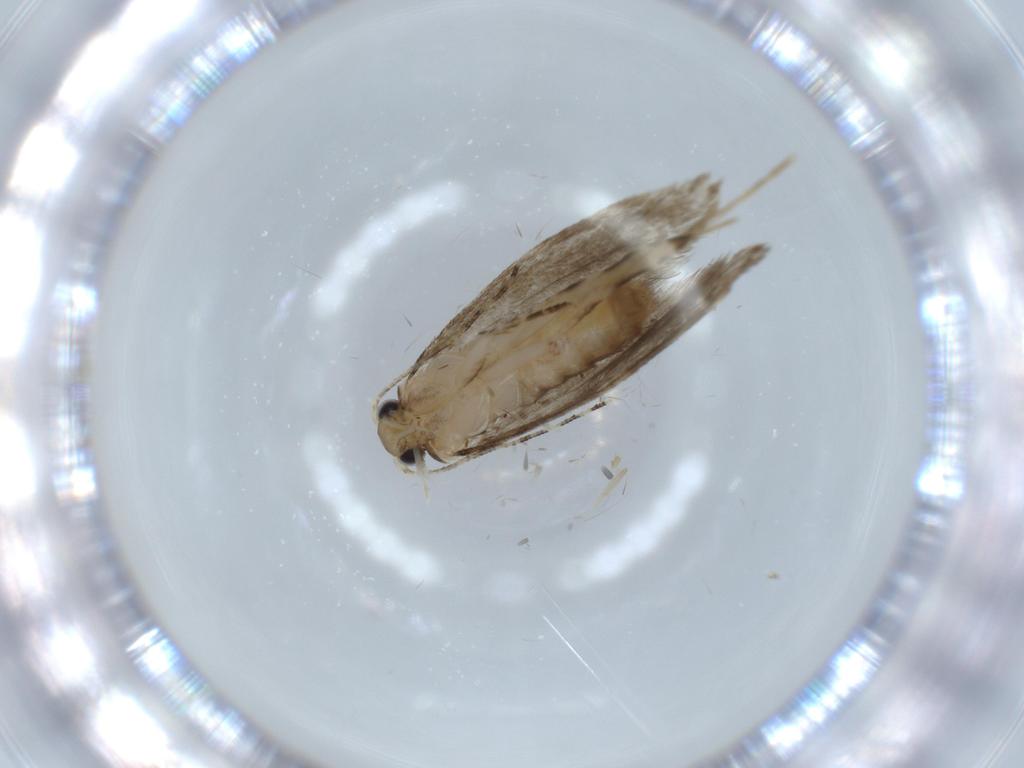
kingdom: Animalia
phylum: Arthropoda
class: Insecta
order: Lepidoptera
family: Tineidae
